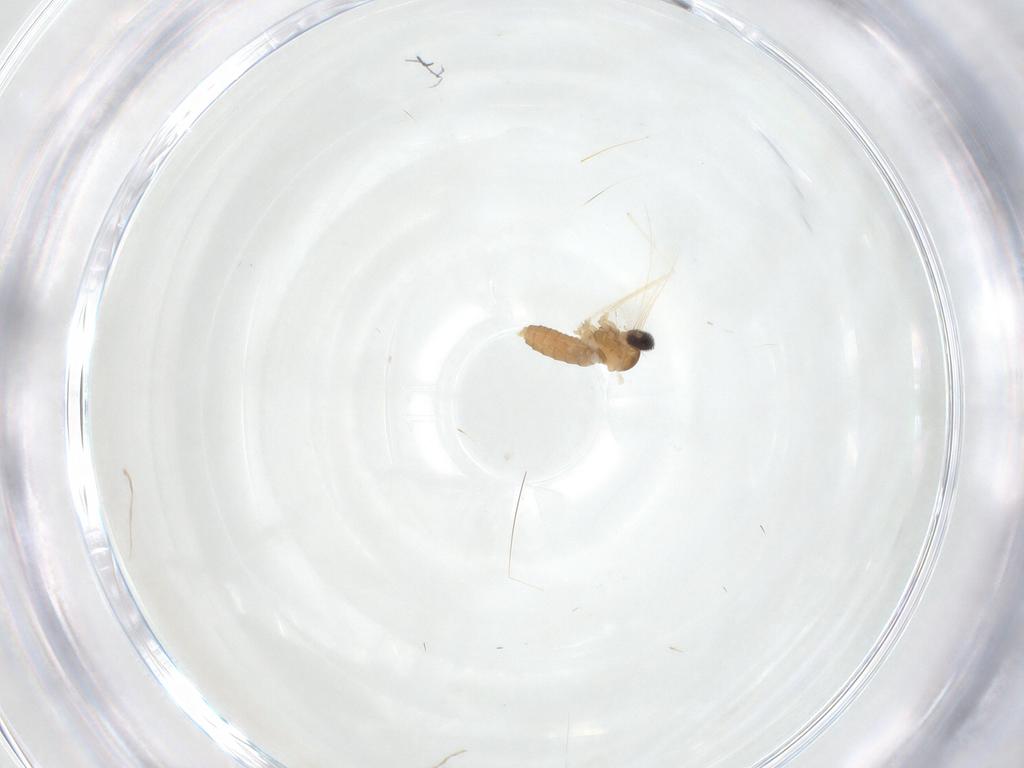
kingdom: Animalia
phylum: Arthropoda
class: Insecta
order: Diptera
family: Cecidomyiidae
